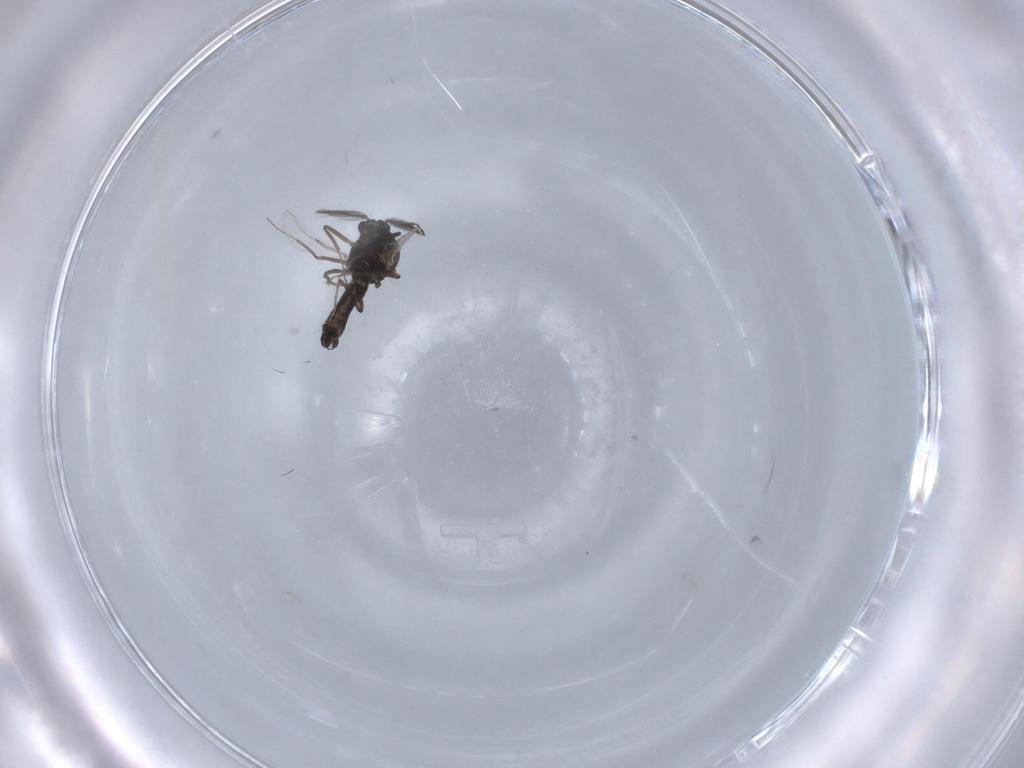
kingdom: Animalia
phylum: Arthropoda
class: Insecta
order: Diptera
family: Ceratopogonidae
